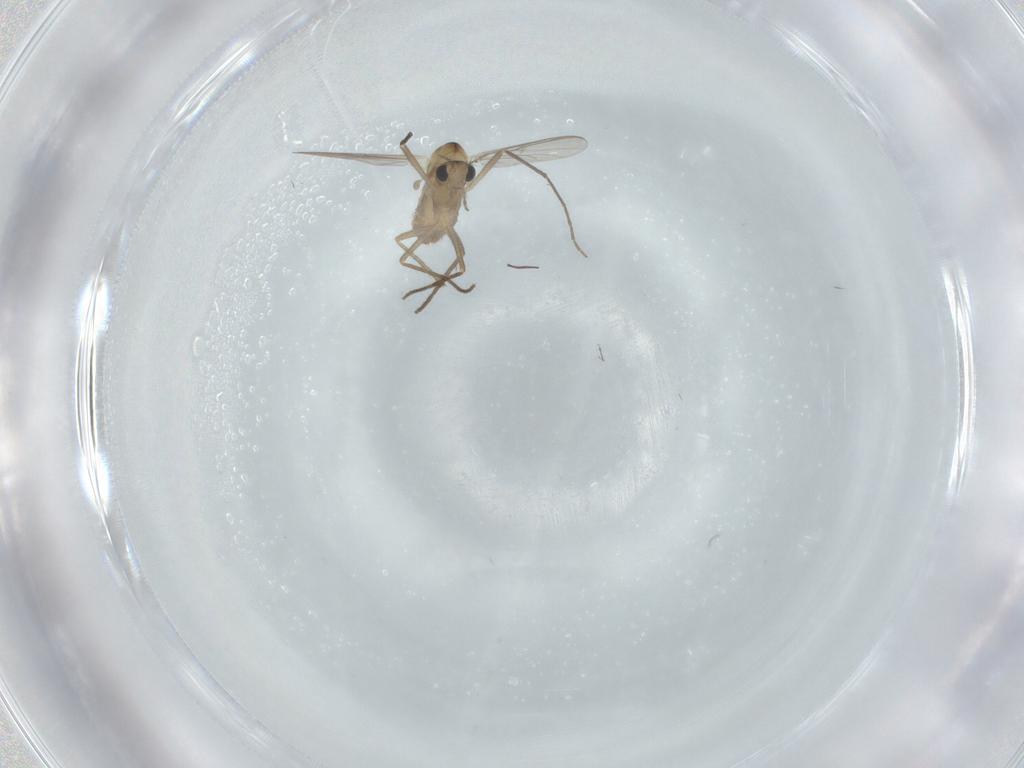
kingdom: Animalia
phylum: Arthropoda
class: Insecta
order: Diptera
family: Chironomidae
